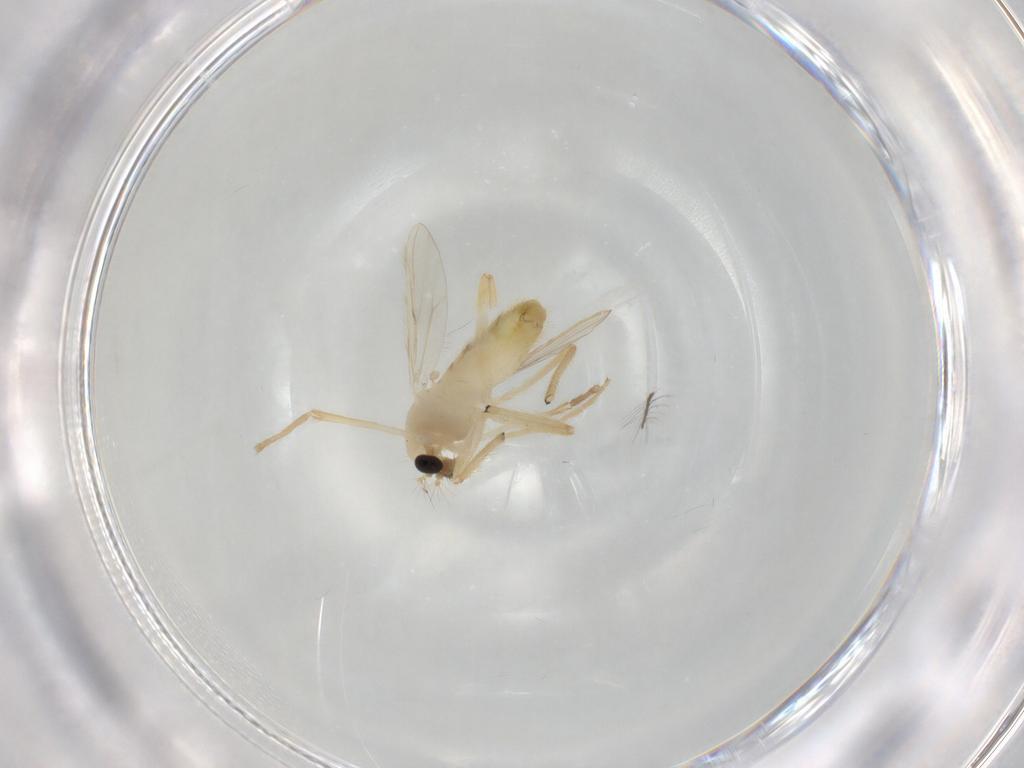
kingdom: Animalia
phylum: Arthropoda
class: Insecta
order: Diptera
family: Chironomidae
